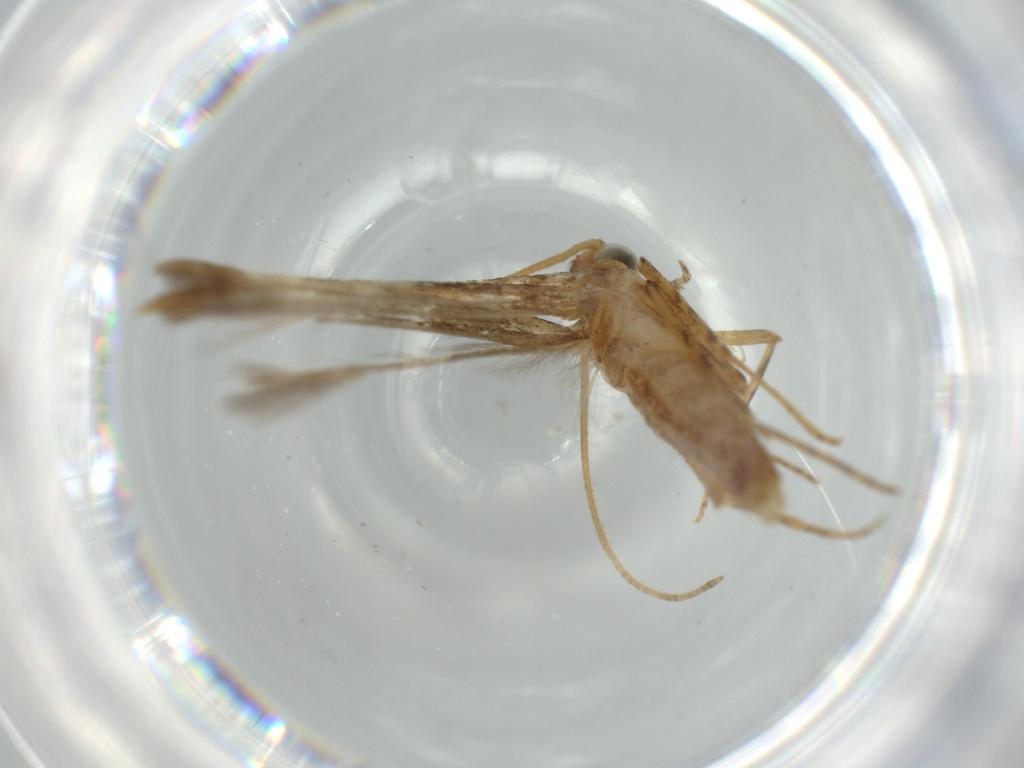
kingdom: Animalia
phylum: Arthropoda
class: Insecta
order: Lepidoptera
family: Batrachedridae
